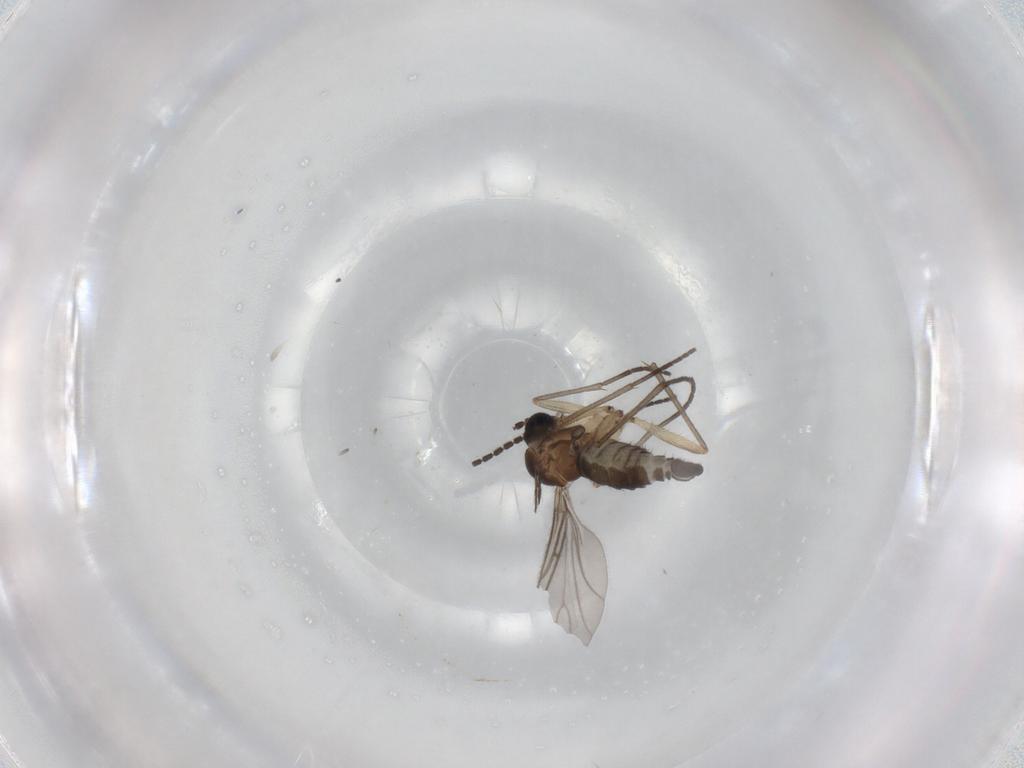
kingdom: Animalia
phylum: Arthropoda
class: Insecta
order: Diptera
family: Sciaridae
